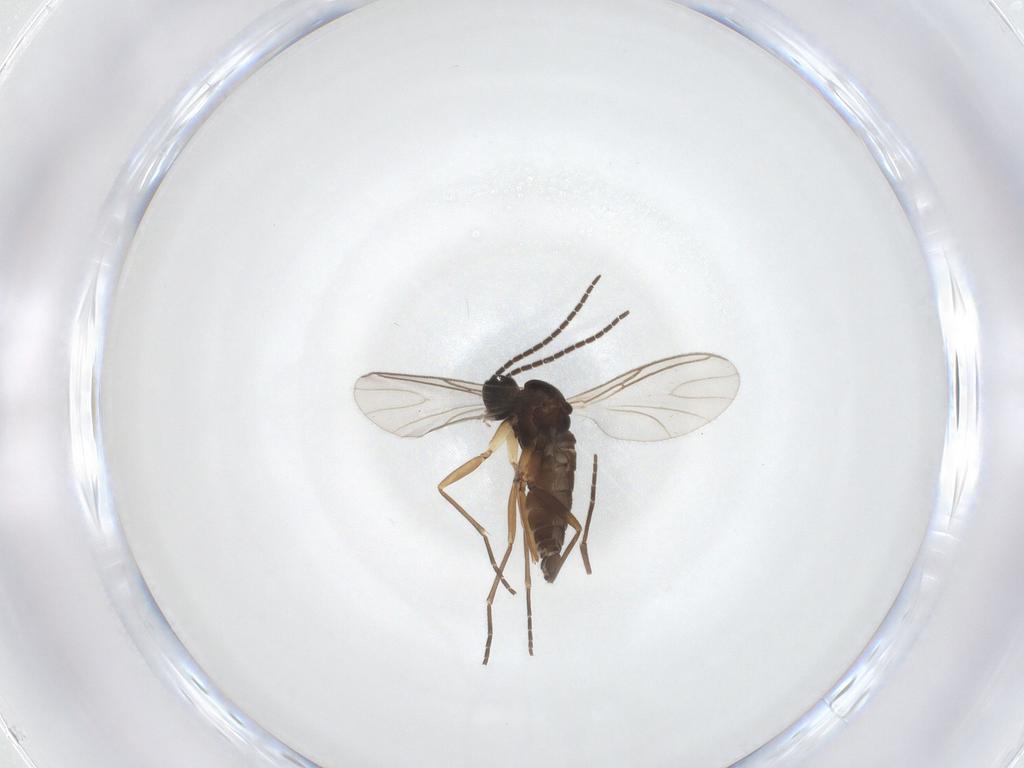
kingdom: Animalia
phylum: Arthropoda
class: Insecta
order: Diptera
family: Sciaridae
